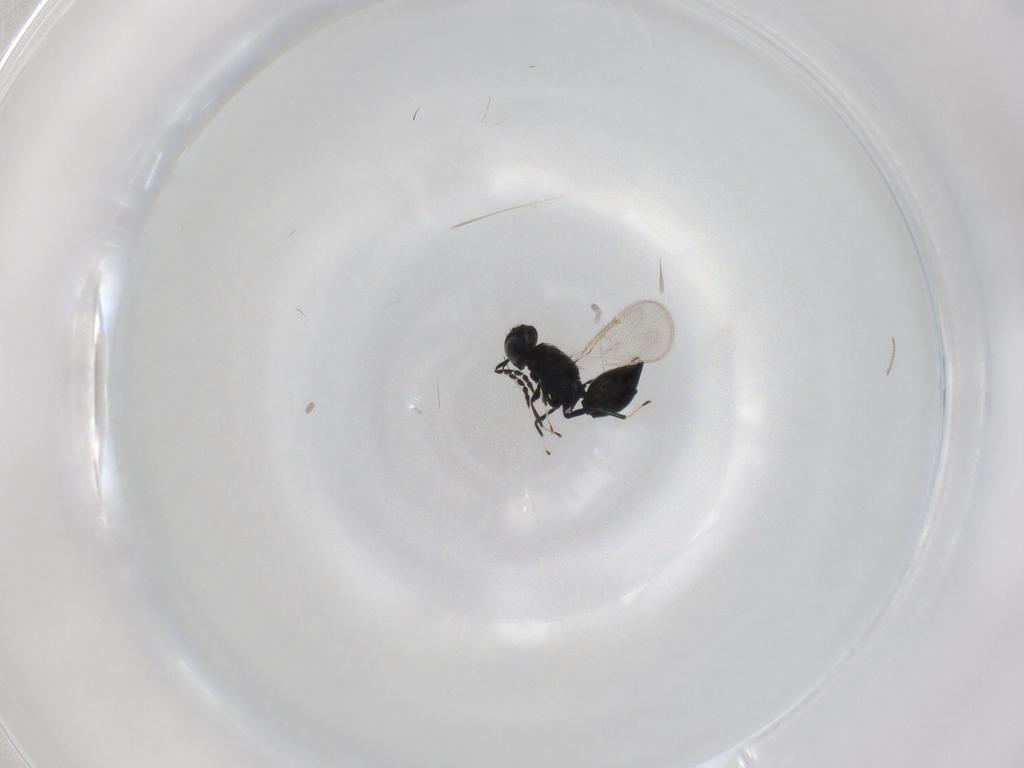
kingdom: Animalia
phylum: Arthropoda
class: Insecta
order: Hymenoptera
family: Eulophidae
